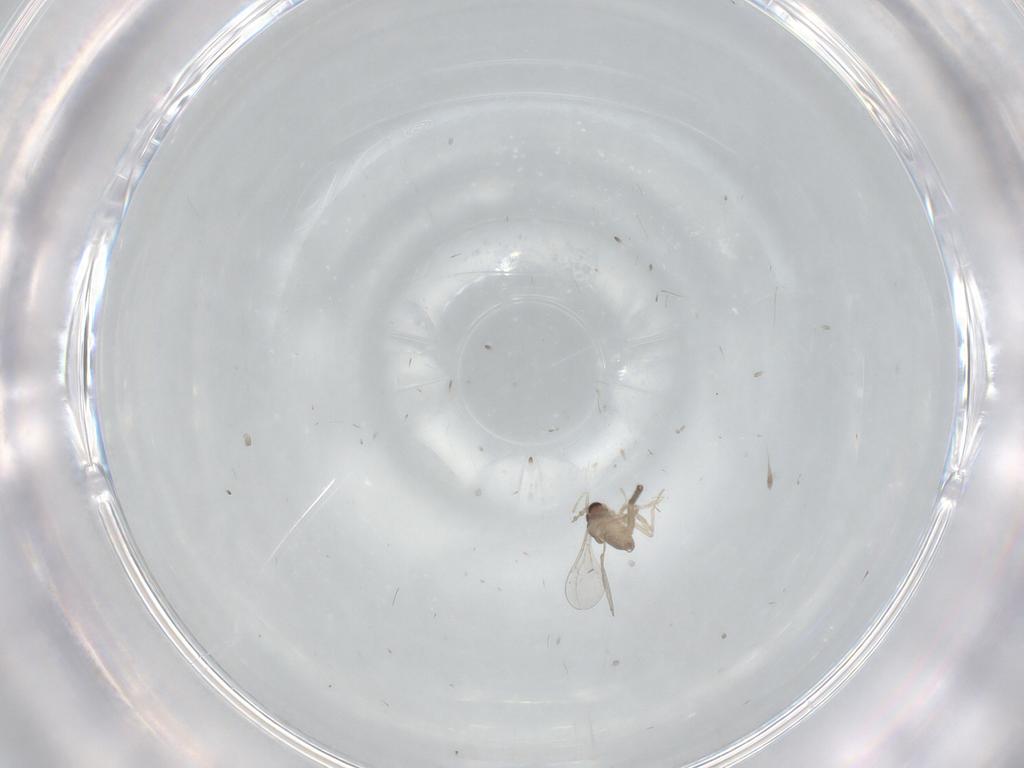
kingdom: Animalia
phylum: Arthropoda
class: Insecta
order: Diptera
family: Cecidomyiidae
